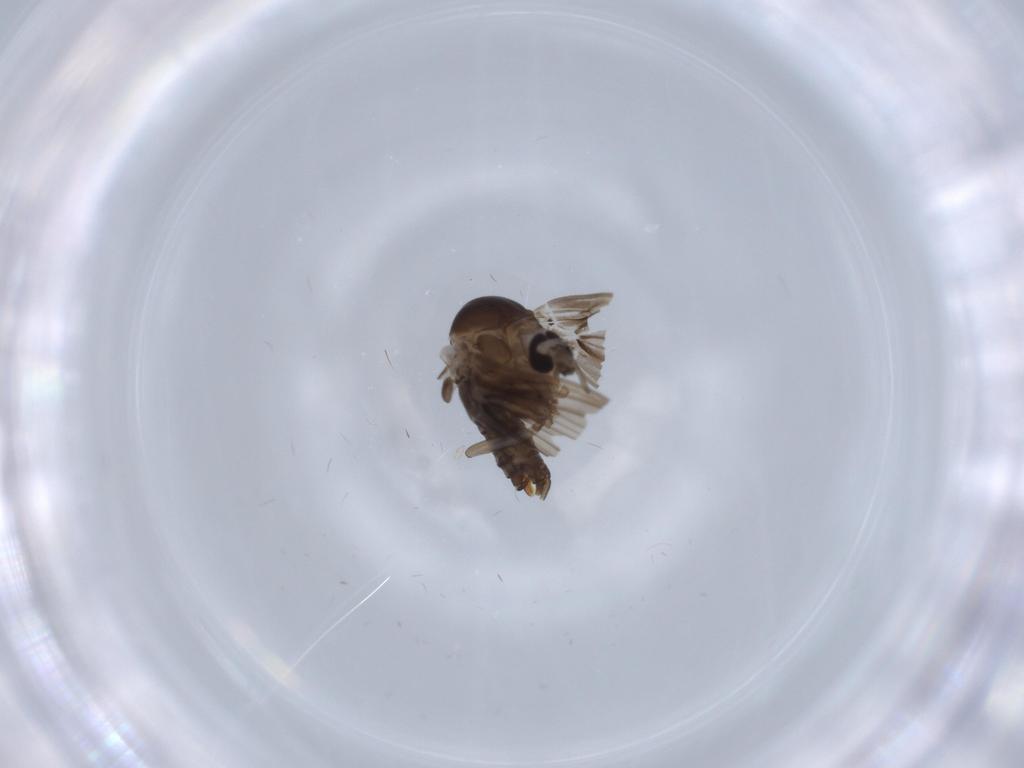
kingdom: Animalia
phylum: Arthropoda
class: Insecta
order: Diptera
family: Psychodidae
